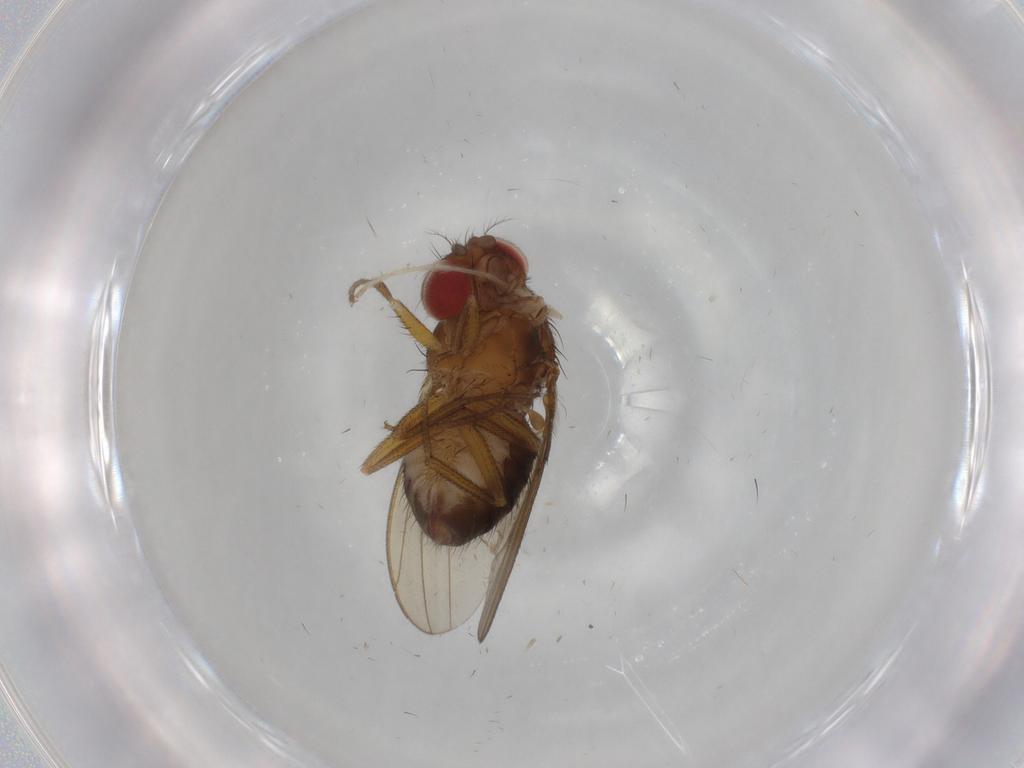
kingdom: Animalia
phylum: Arthropoda
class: Insecta
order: Diptera
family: Drosophilidae
